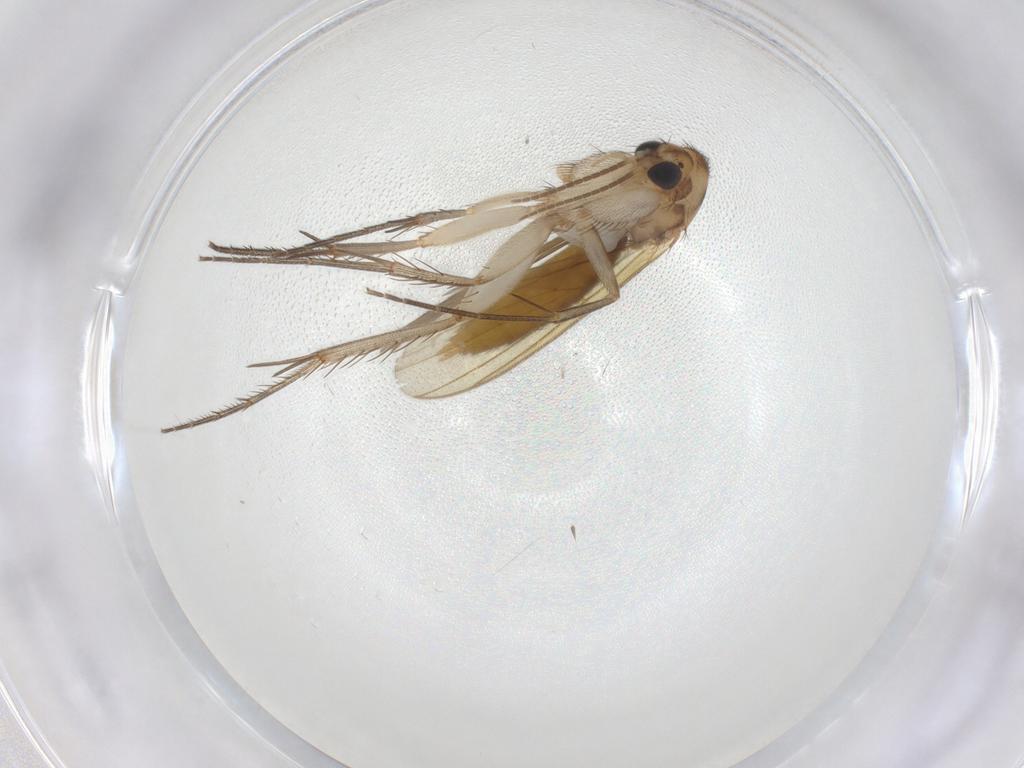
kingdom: Animalia
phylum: Arthropoda
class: Insecta
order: Diptera
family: Mycetophilidae
